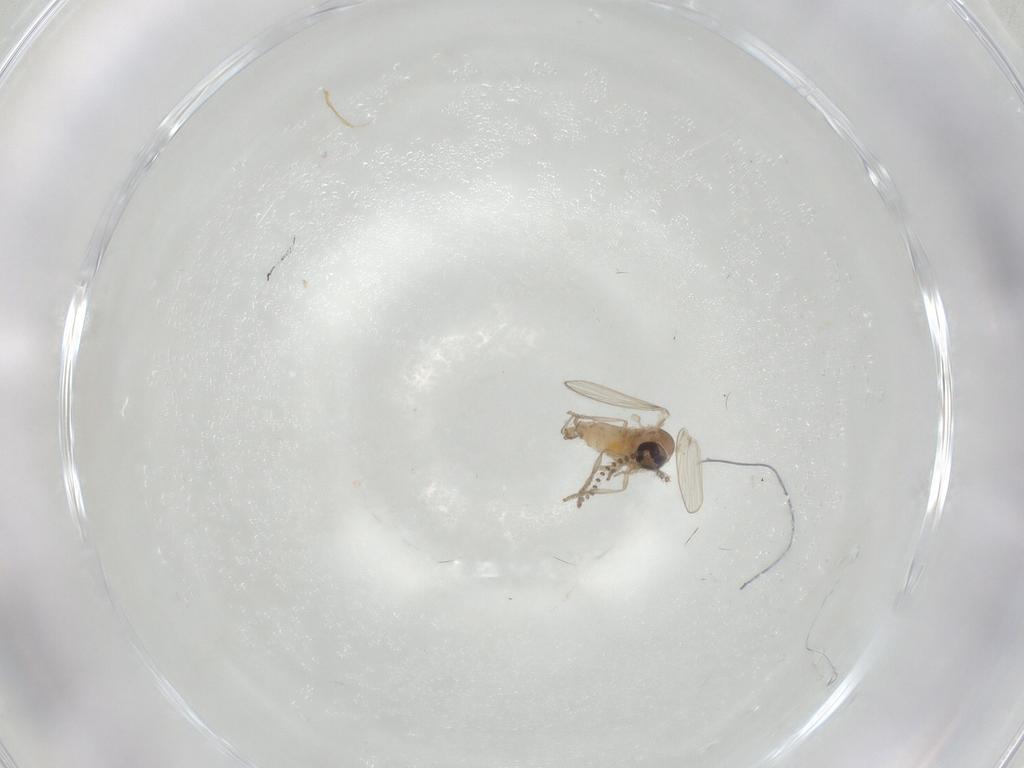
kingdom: Animalia
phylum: Arthropoda
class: Insecta
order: Diptera
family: Psychodidae
